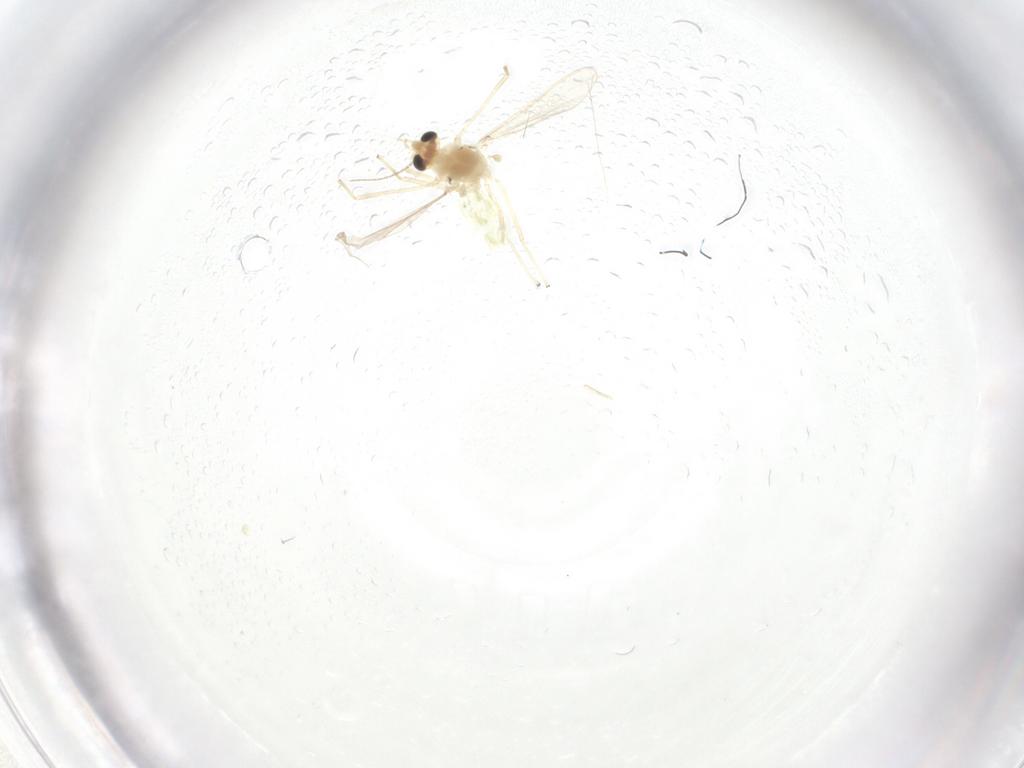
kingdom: Animalia
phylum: Arthropoda
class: Insecta
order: Diptera
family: Chironomidae
